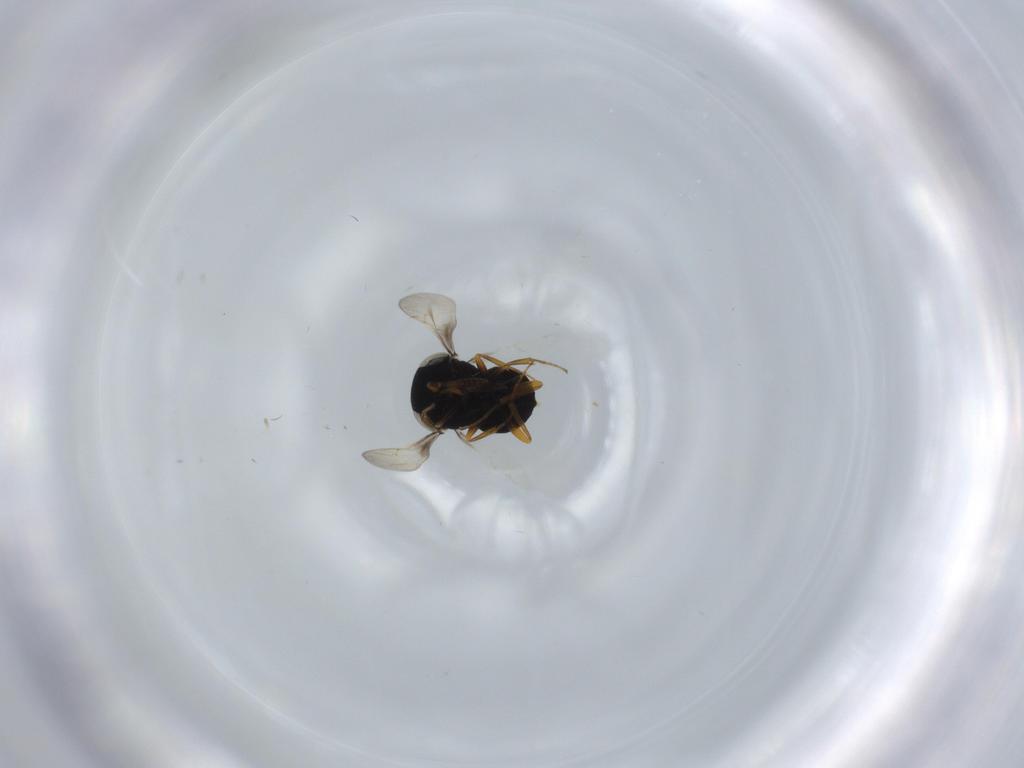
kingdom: Animalia
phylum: Arthropoda
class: Insecta
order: Hymenoptera
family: Scelionidae
